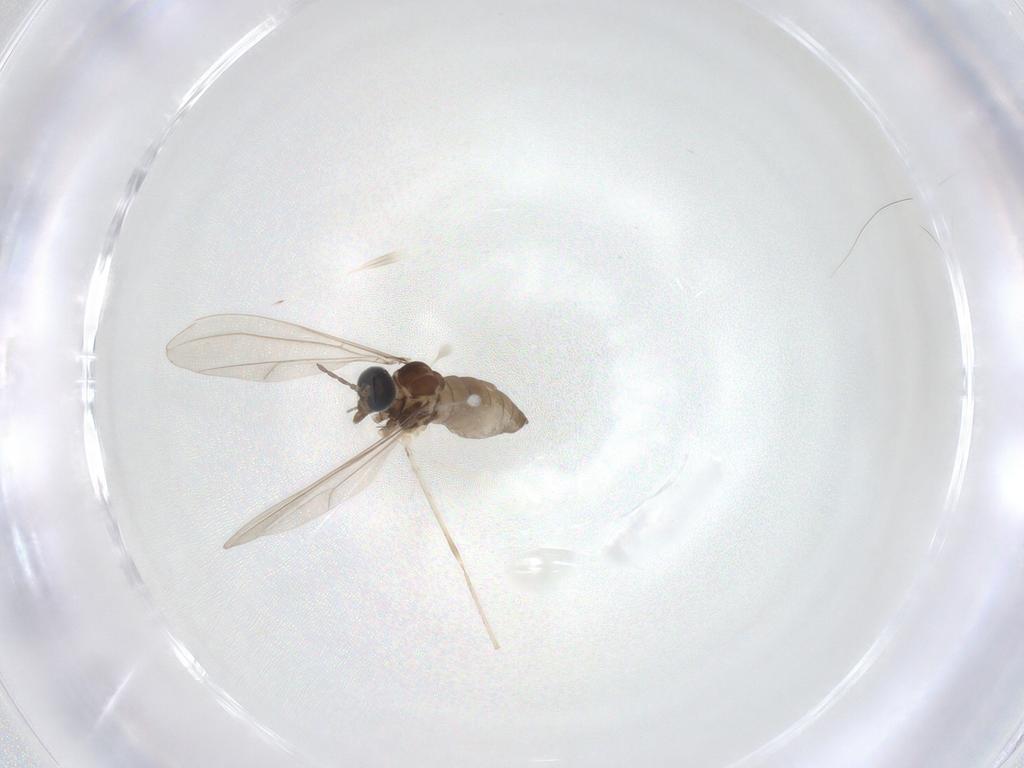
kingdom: Animalia
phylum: Arthropoda
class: Insecta
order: Diptera
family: Cecidomyiidae
